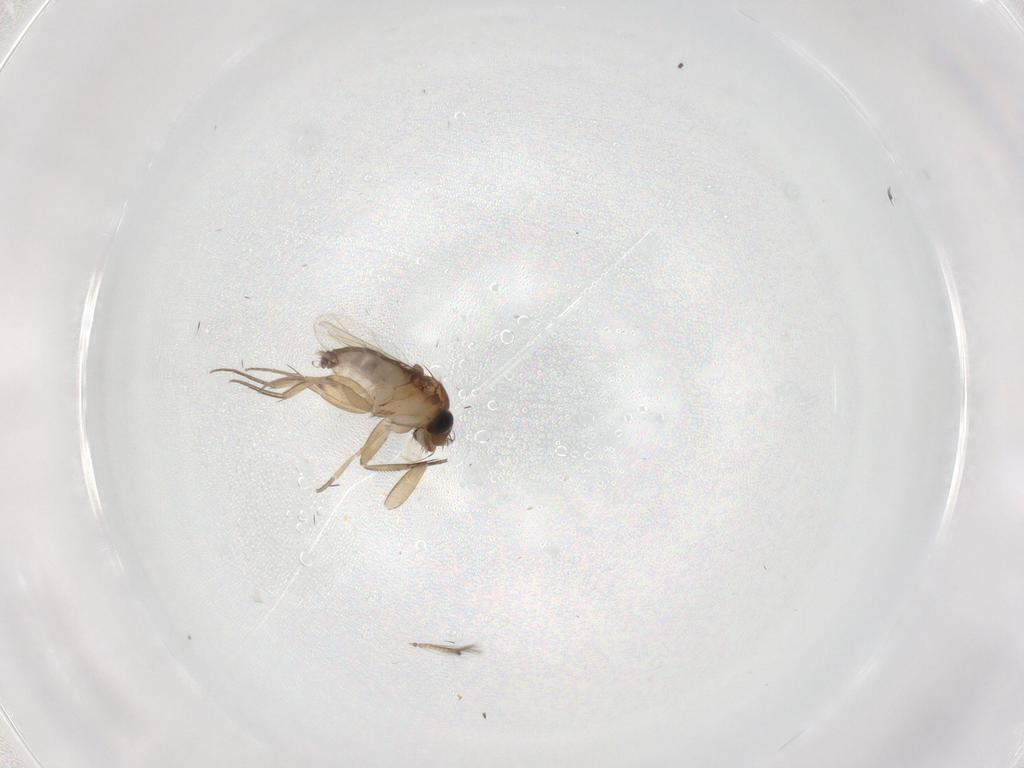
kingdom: Animalia
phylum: Arthropoda
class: Insecta
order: Diptera
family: Phoridae
